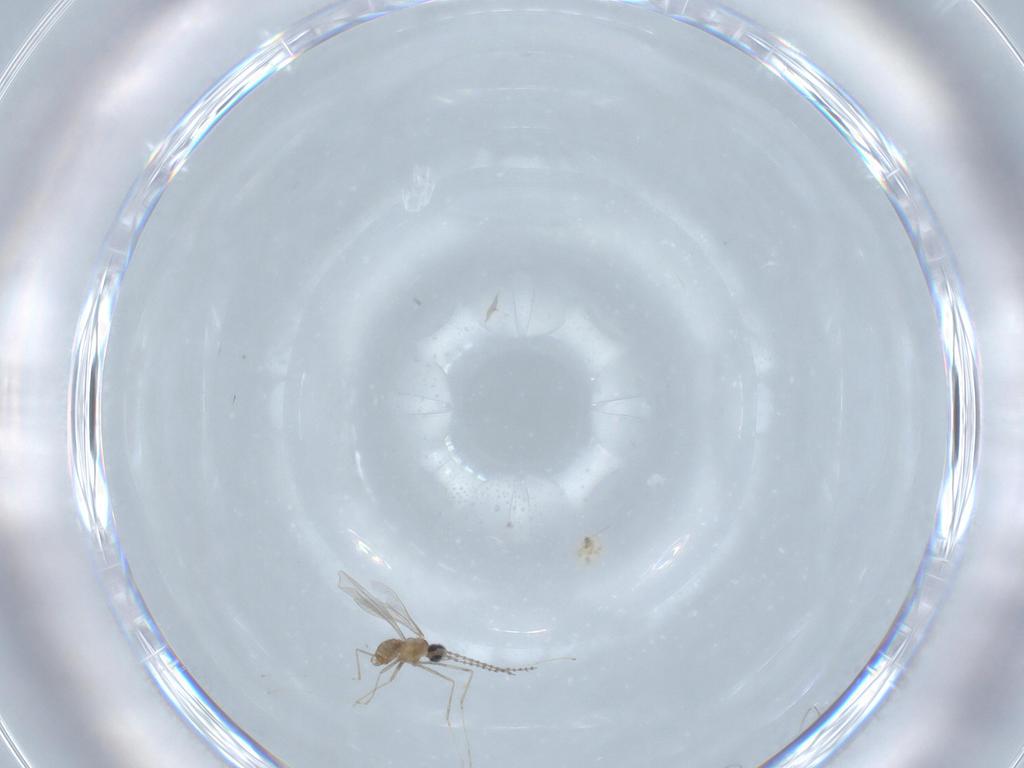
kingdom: Animalia
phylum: Arthropoda
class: Insecta
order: Diptera
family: Cecidomyiidae
